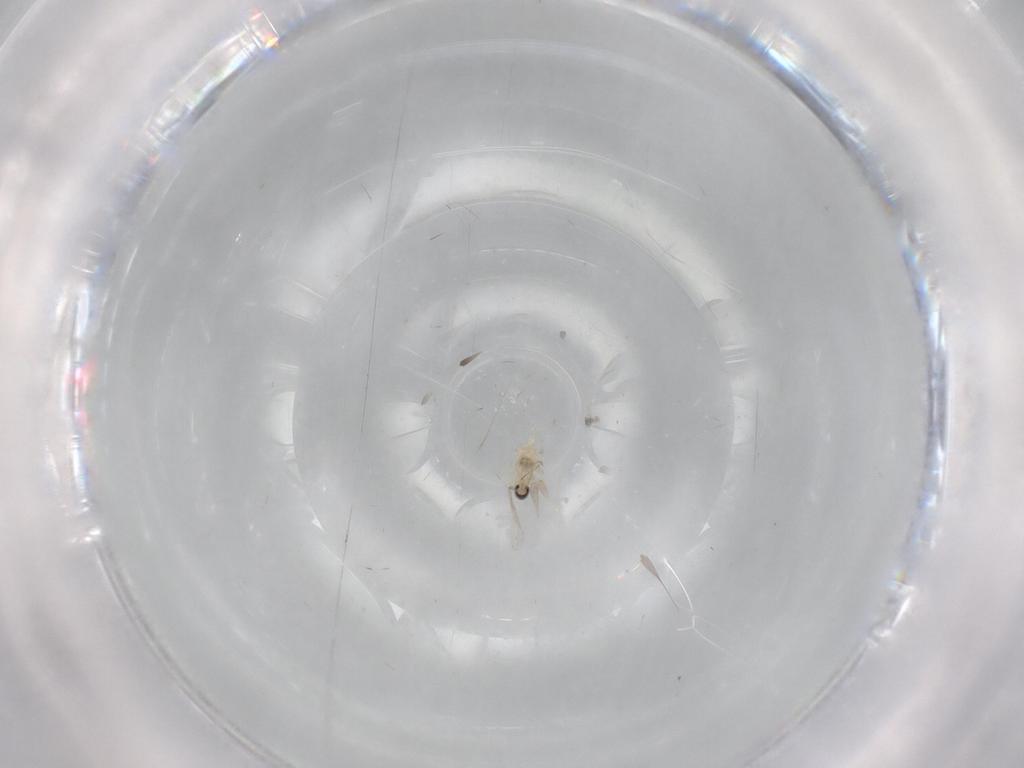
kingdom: Animalia
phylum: Arthropoda
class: Insecta
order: Diptera
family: Cecidomyiidae
